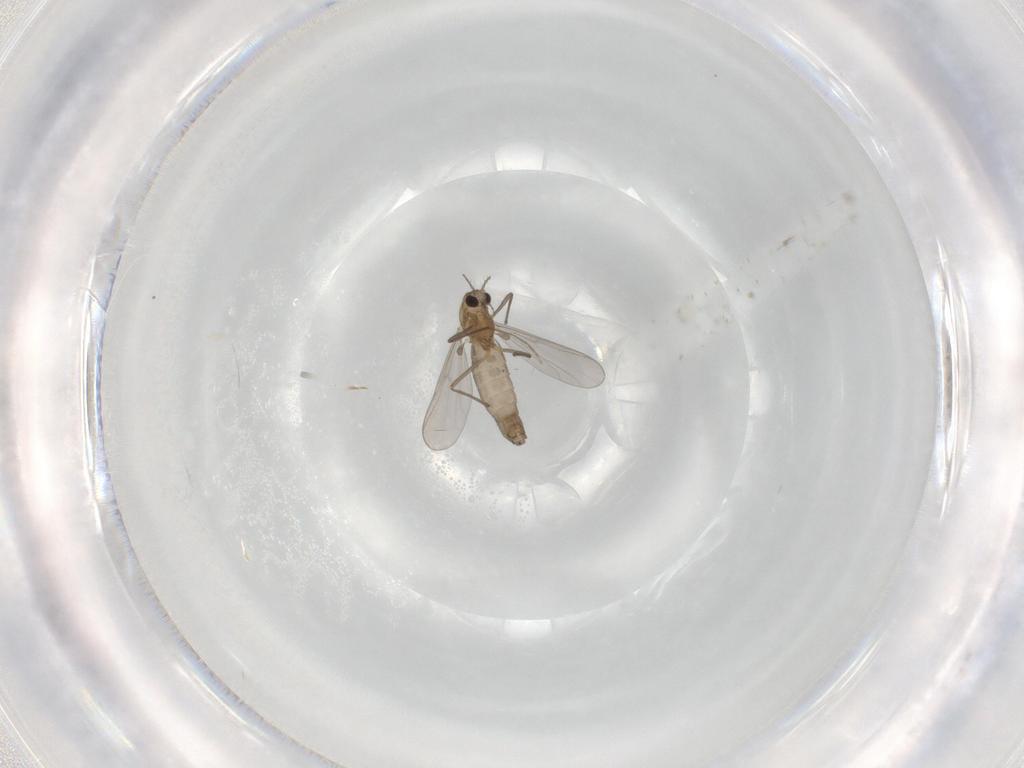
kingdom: Animalia
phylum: Arthropoda
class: Insecta
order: Diptera
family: Chironomidae
